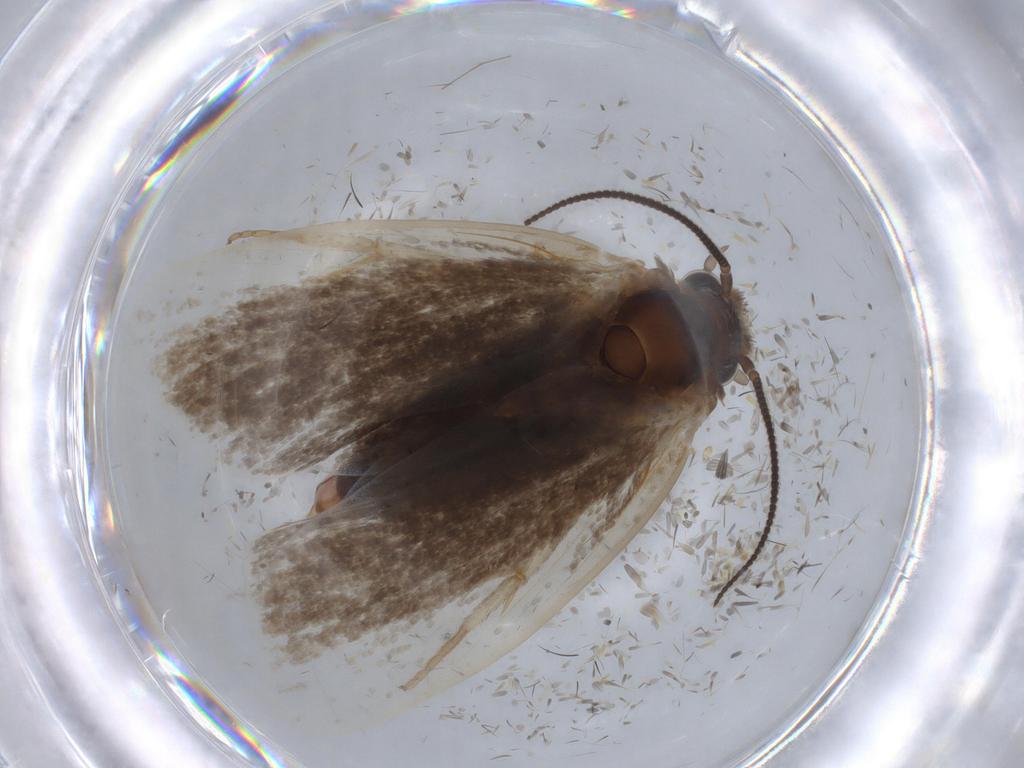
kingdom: Animalia
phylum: Arthropoda
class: Insecta
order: Lepidoptera
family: Tineidae
